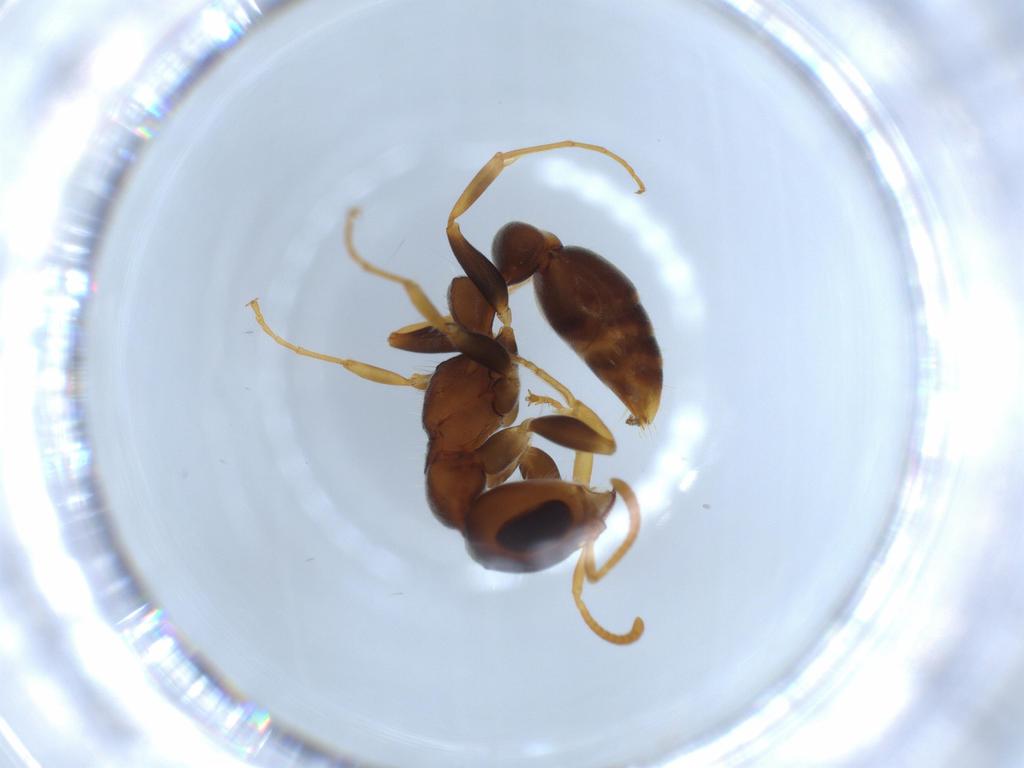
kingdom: Animalia
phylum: Arthropoda
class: Insecta
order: Hymenoptera
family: Formicidae
